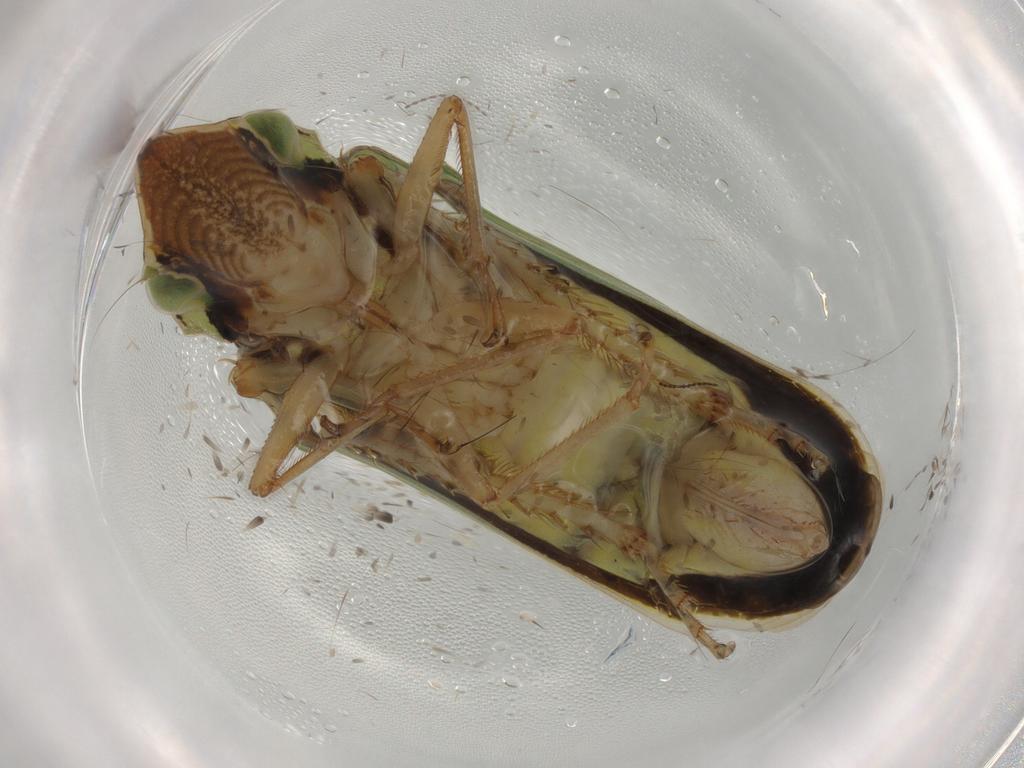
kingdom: Animalia
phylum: Arthropoda
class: Insecta
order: Hemiptera
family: Cicadellidae
